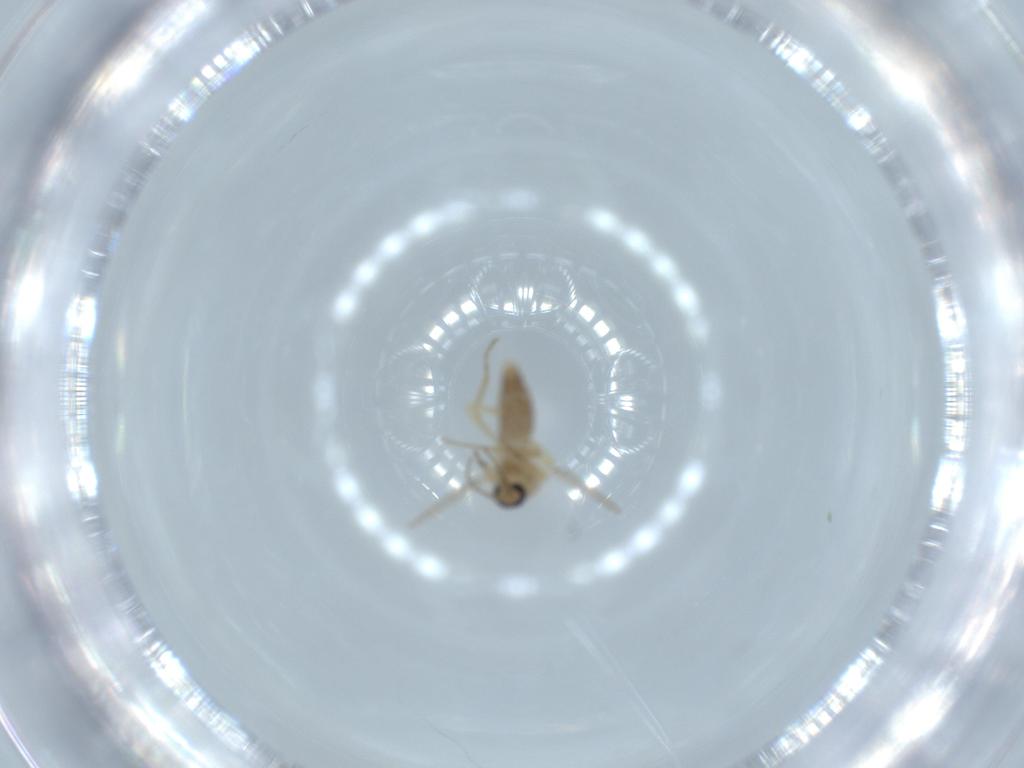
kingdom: Animalia
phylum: Arthropoda
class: Insecta
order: Diptera
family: Ceratopogonidae
